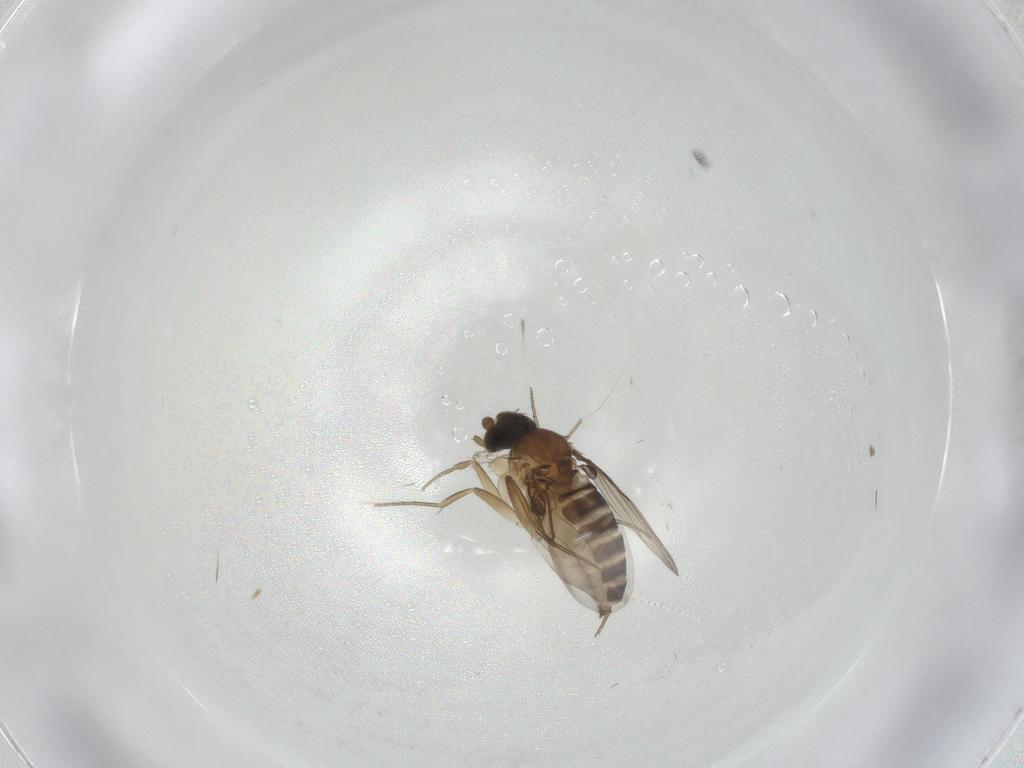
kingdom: Animalia
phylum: Arthropoda
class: Insecta
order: Diptera
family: Phoridae
